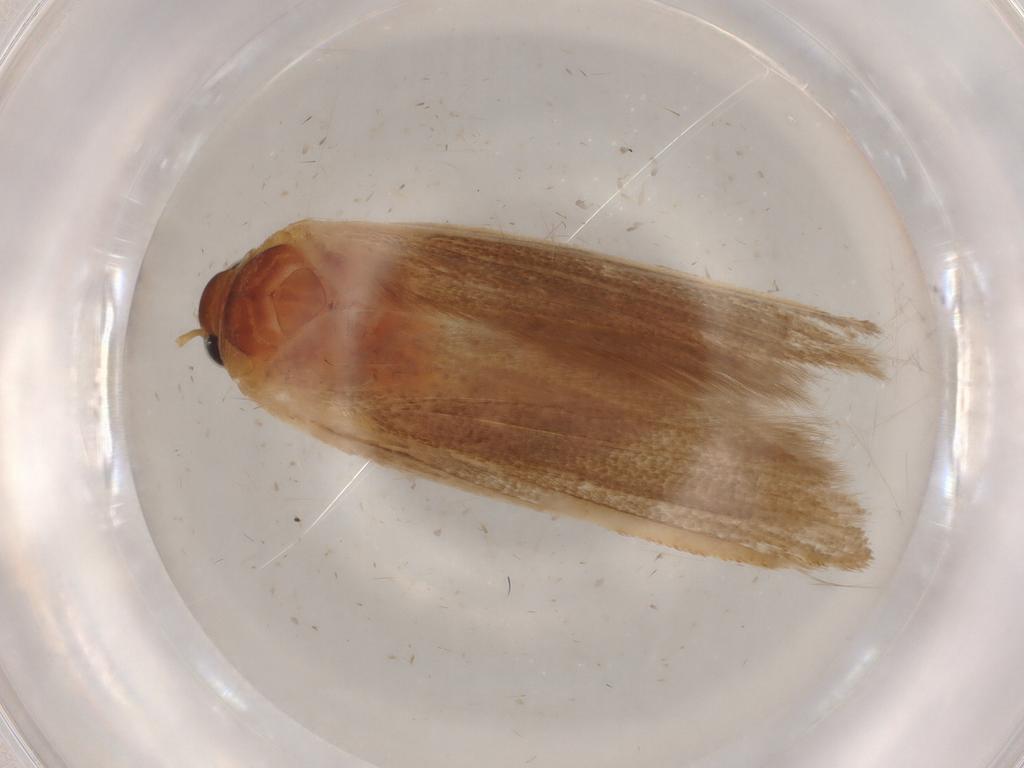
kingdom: Animalia
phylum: Arthropoda
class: Insecta
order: Lepidoptera
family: Blastobasidae
